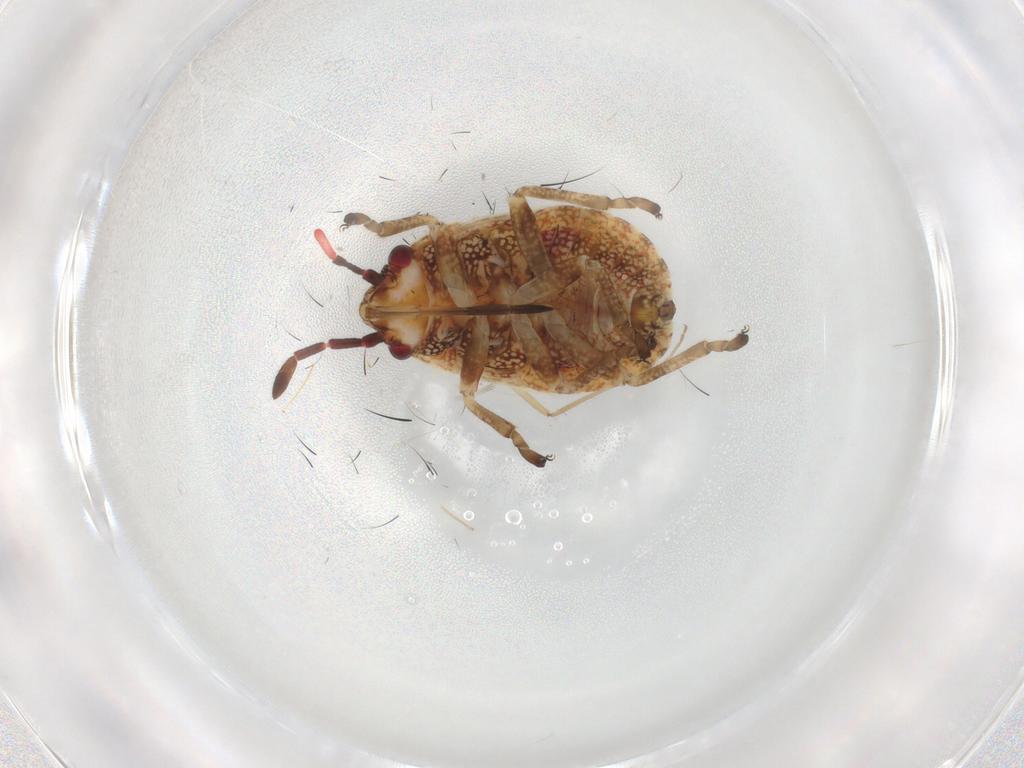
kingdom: Animalia
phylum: Arthropoda
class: Insecta
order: Hemiptera
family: Lygaeidae
